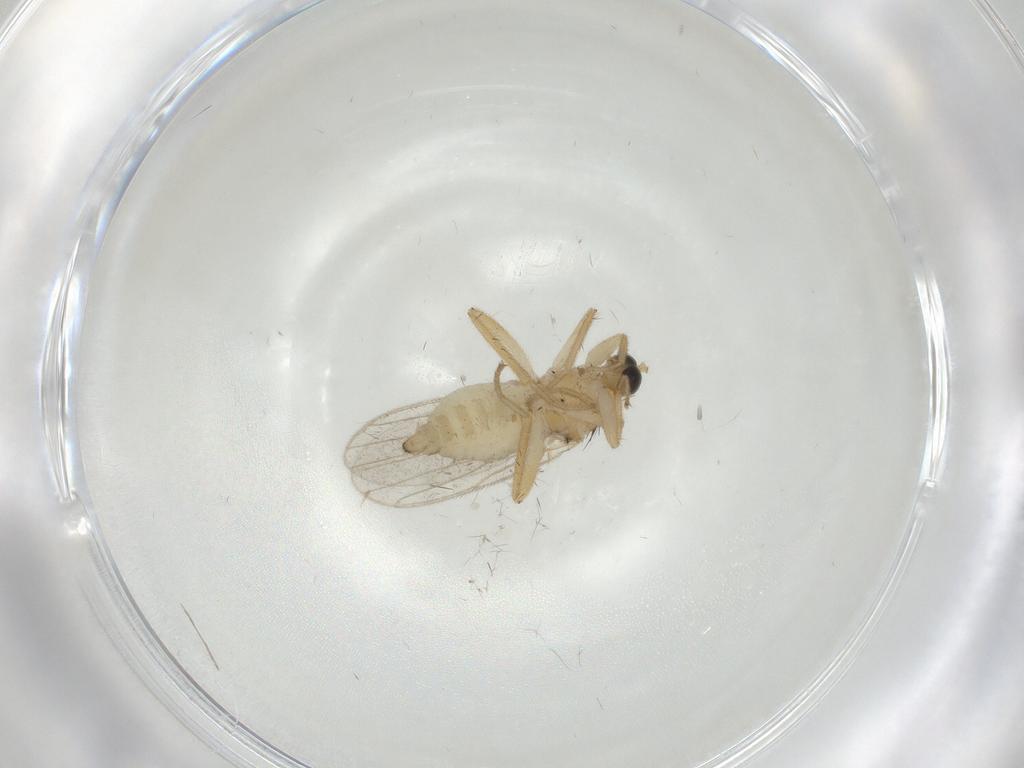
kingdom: Animalia
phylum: Arthropoda
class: Insecta
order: Diptera
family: Hybotidae
